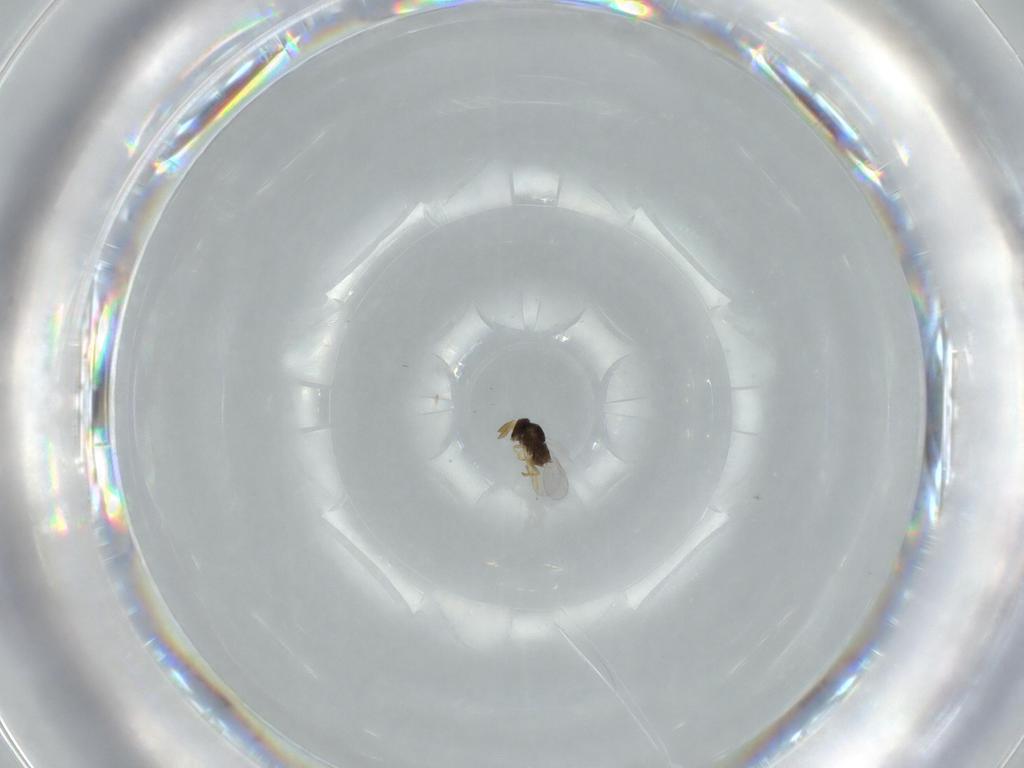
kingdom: Animalia
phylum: Arthropoda
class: Insecta
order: Hymenoptera
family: Encyrtidae
